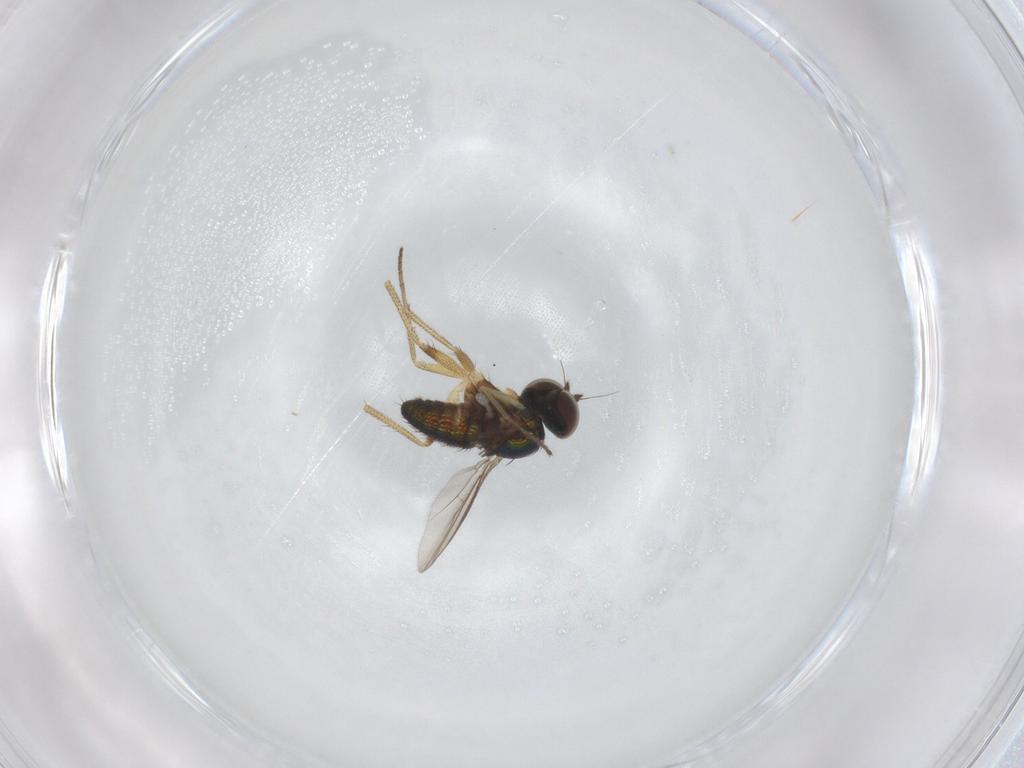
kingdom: Animalia
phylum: Arthropoda
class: Insecta
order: Diptera
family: Dolichopodidae
